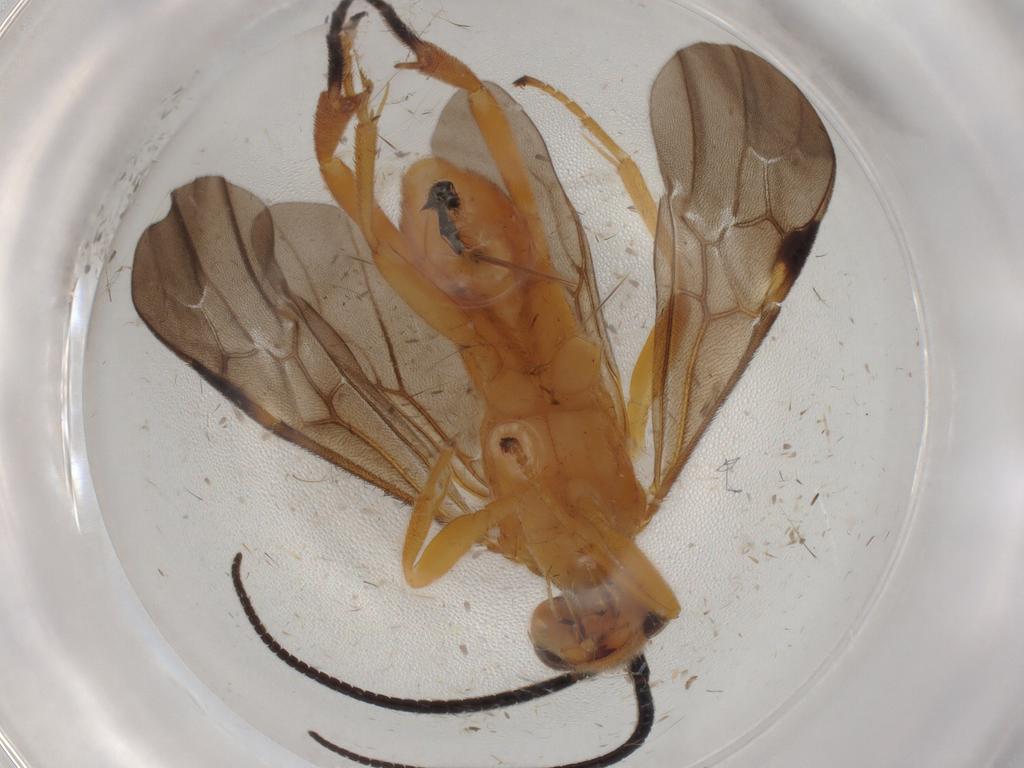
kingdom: Animalia
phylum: Arthropoda
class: Insecta
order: Hymenoptera
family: Braconidae
